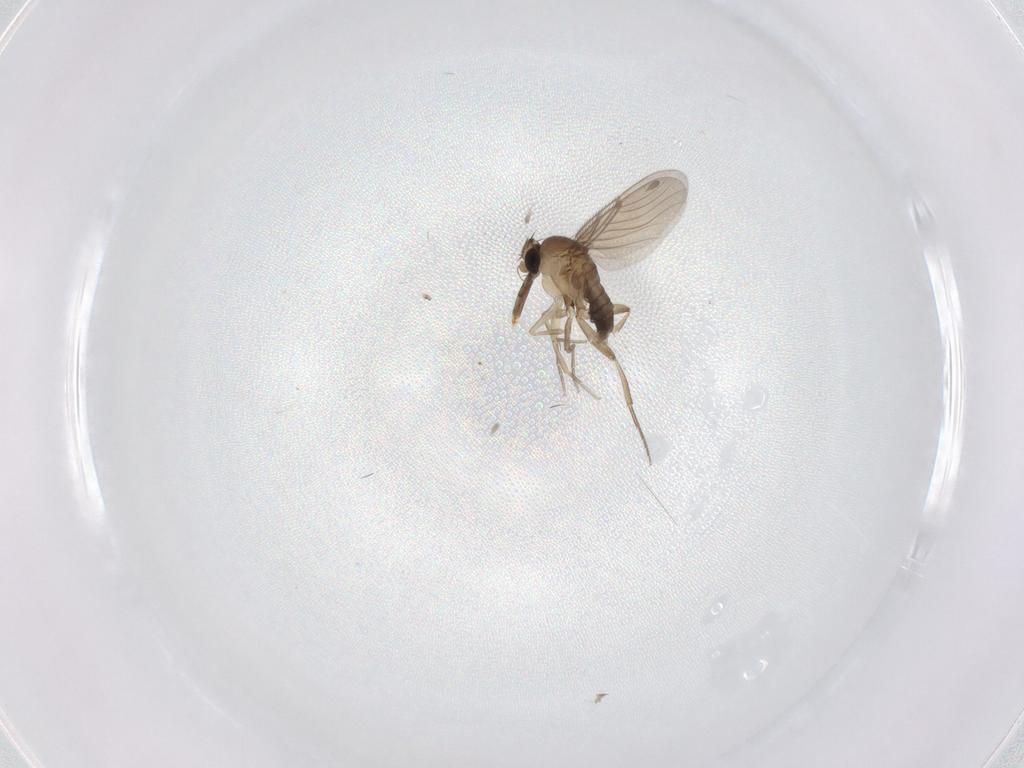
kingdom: Animalia
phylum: Arthropoda
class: Insecta
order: Diptera
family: Phoridae
